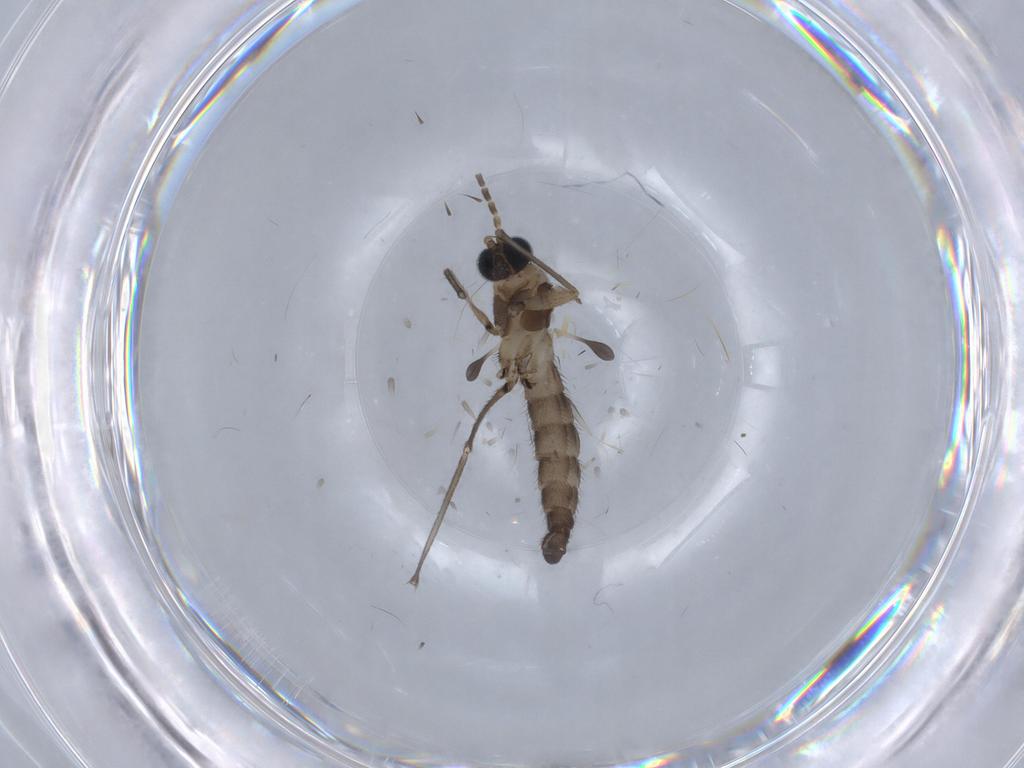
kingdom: Animalia
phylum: Arthropoda
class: Insecta
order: Diptera
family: Sciaridae
